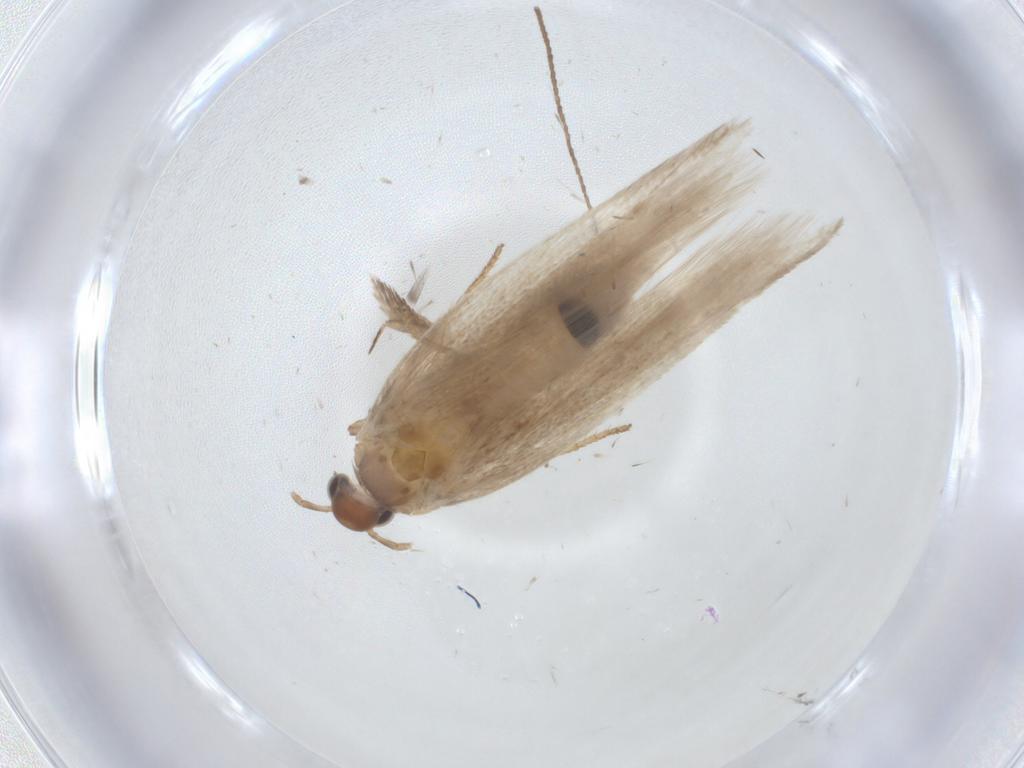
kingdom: Animalia
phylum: Arthropoda
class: Insecta
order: Lepidoptera
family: Gelechiidae
